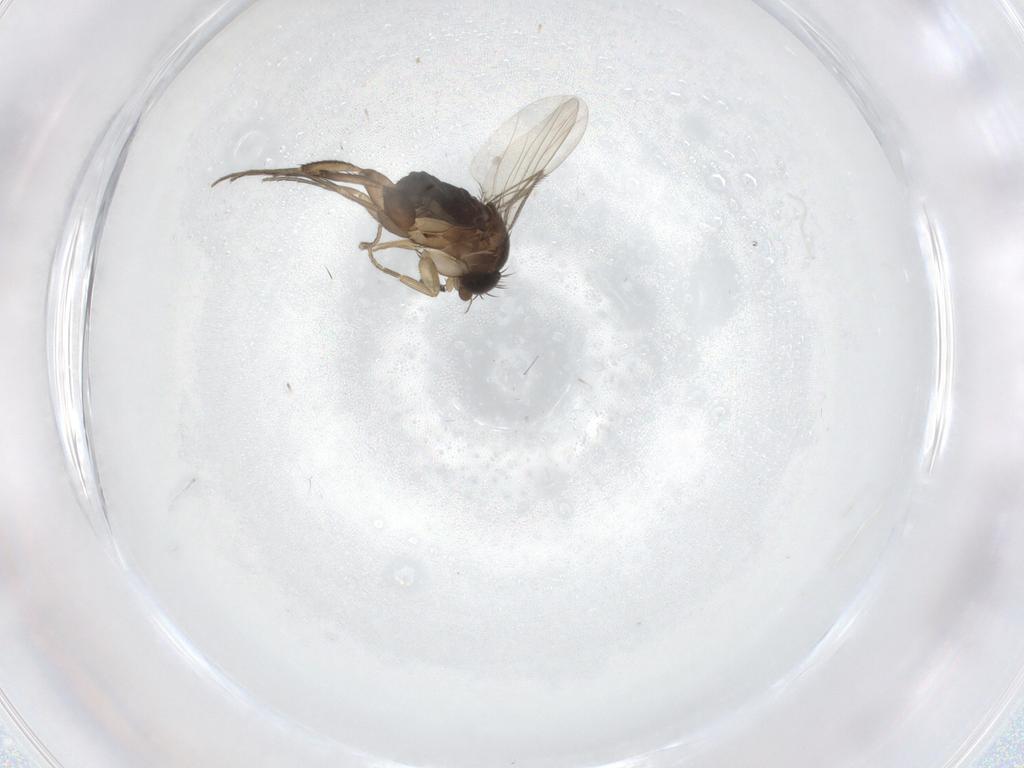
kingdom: Animalia
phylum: Arthropoda
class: Insecta
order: Diptera
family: Phoridae
